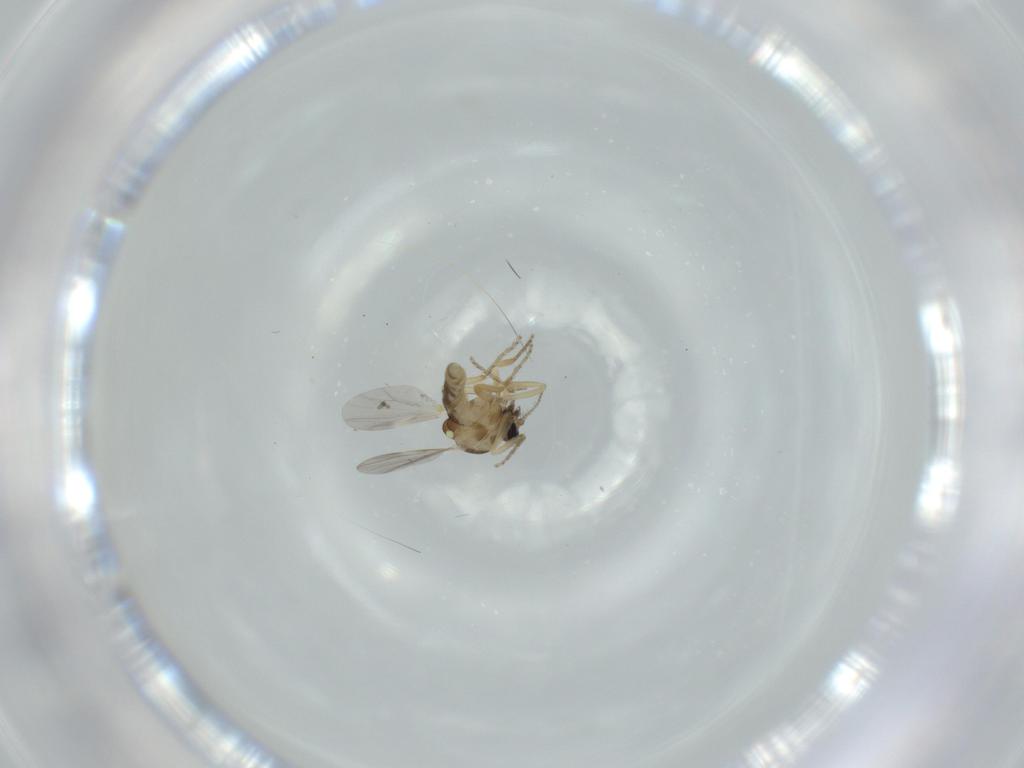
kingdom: Animalia
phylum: Arthropoda
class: Insecta
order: Diptera
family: Ceratopogonidae
